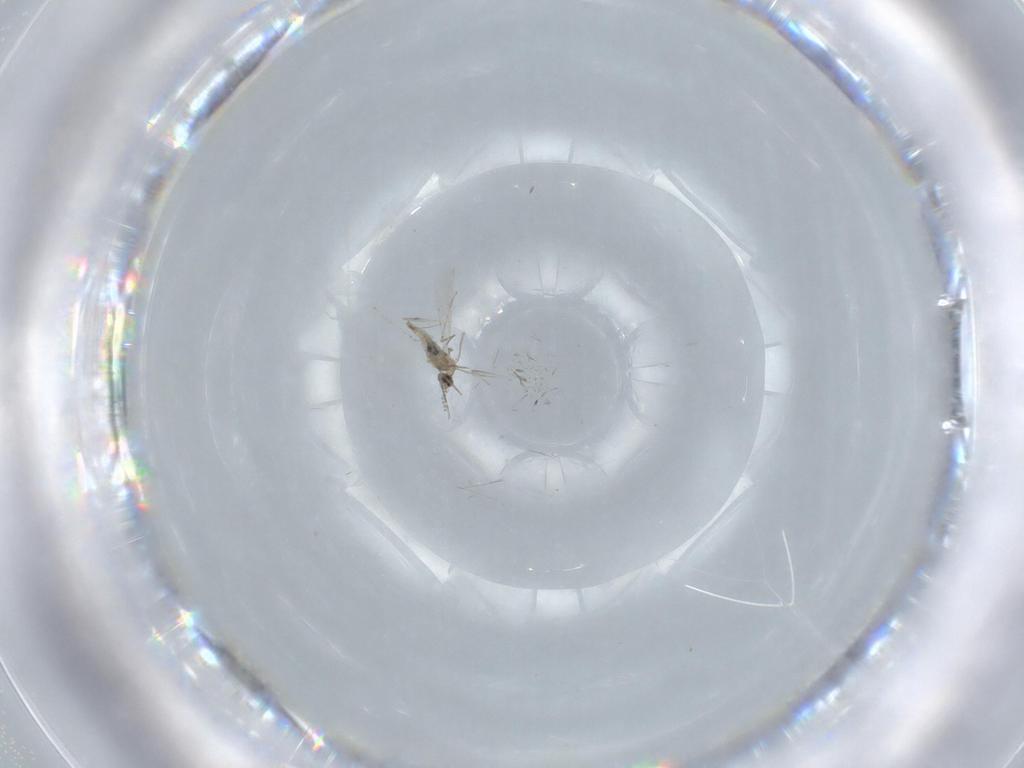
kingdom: Animalia
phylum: Arthropoda
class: Insecta
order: Diptera
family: Cecidomyiidae
